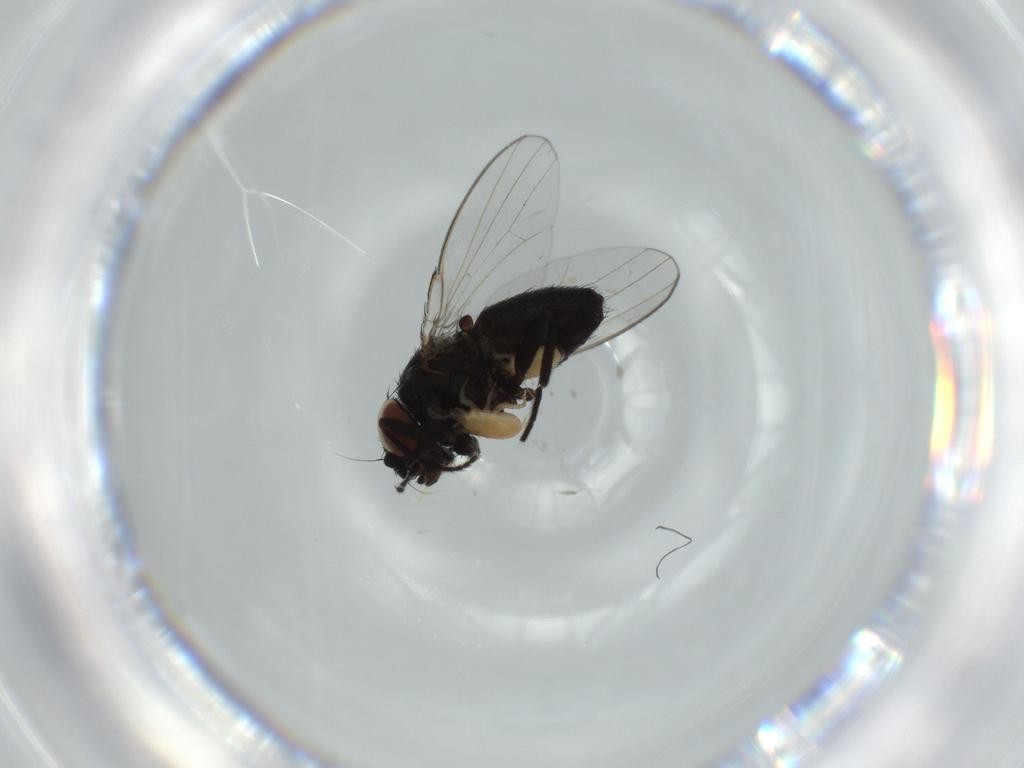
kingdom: Animalia
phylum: Arthropoda
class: Insecta
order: Diptera
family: Milichiidae
